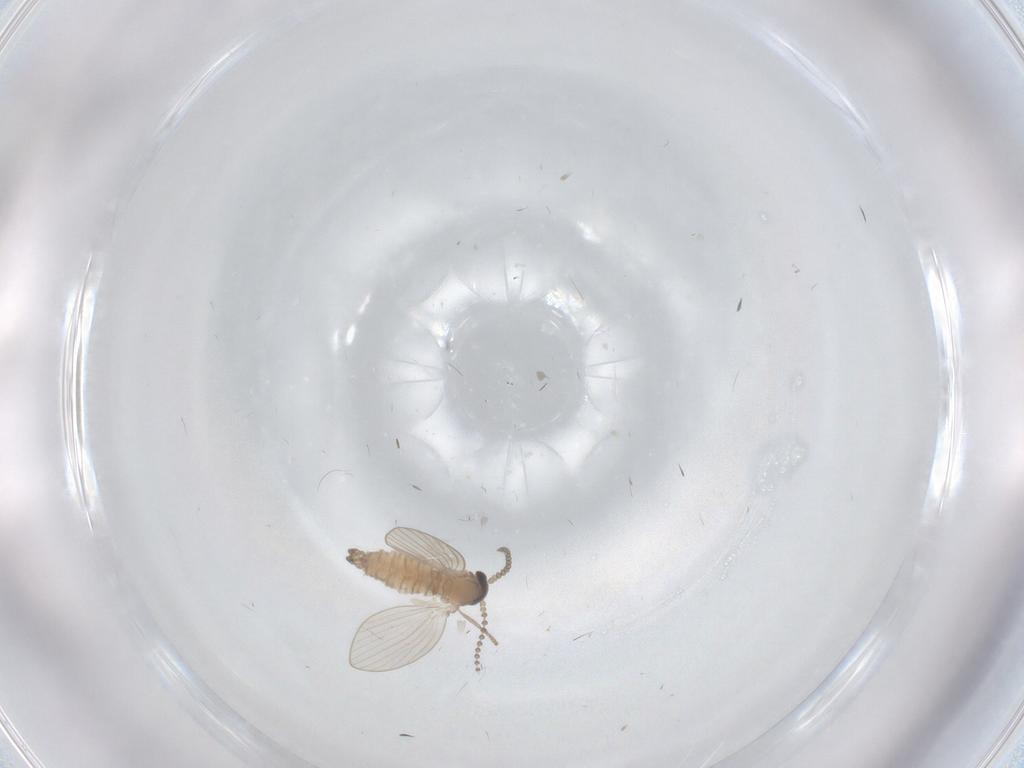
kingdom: Animalia
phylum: Arthropoda
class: Insecta
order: Diptera
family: Psychodidae
